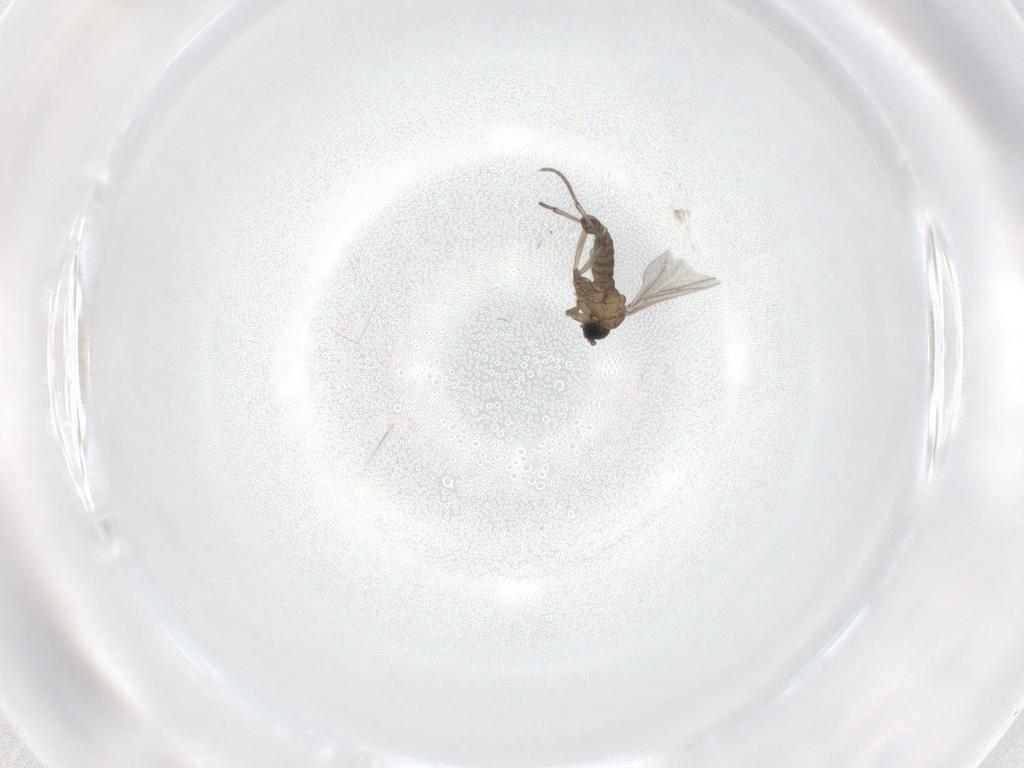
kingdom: Animalia
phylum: Arthropoda
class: Insecta
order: Diptera
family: Sciaridae
